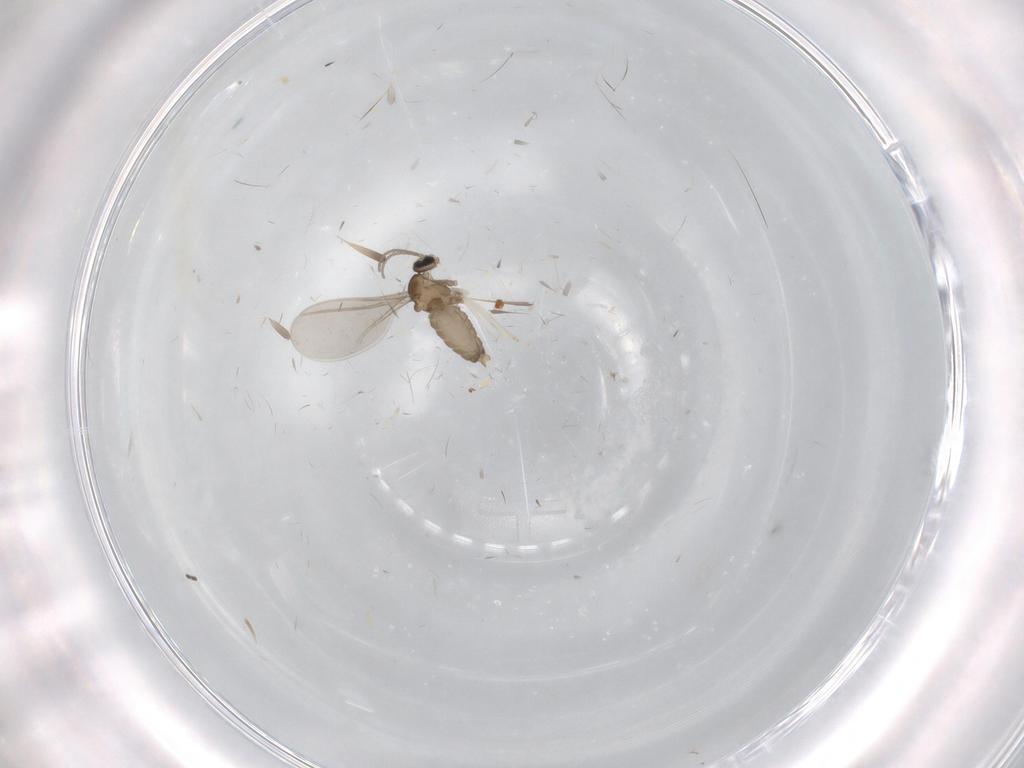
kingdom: Animalia
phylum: Arthropoda
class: Insecta
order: Diptera
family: Cecidomyiidae
